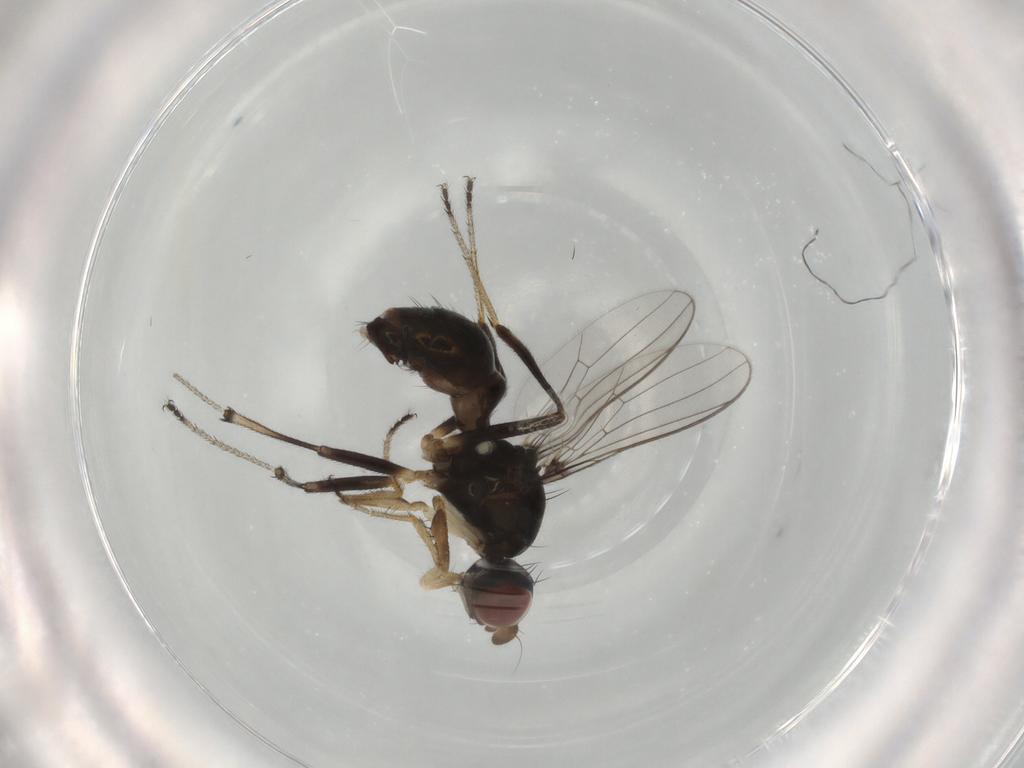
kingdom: Animalia
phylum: Arthropoda
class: Insecta
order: Diptera
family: Sepsidae
